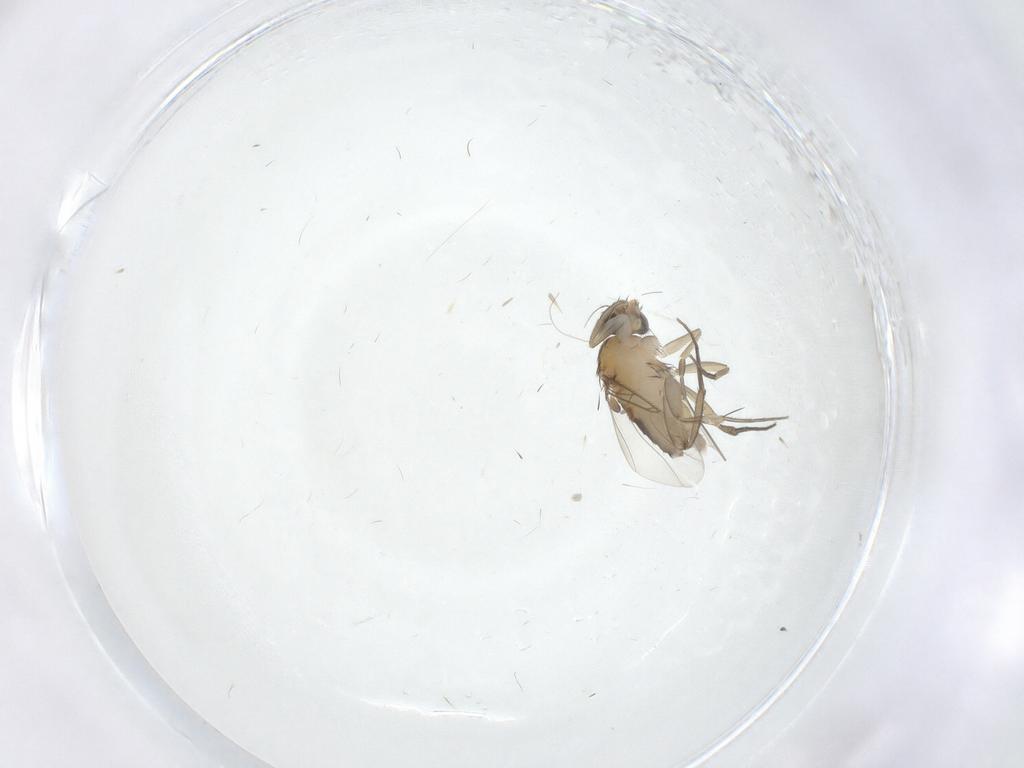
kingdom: Animalia
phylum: Arthropoda
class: Insecta
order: Diptera
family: Phoridae
